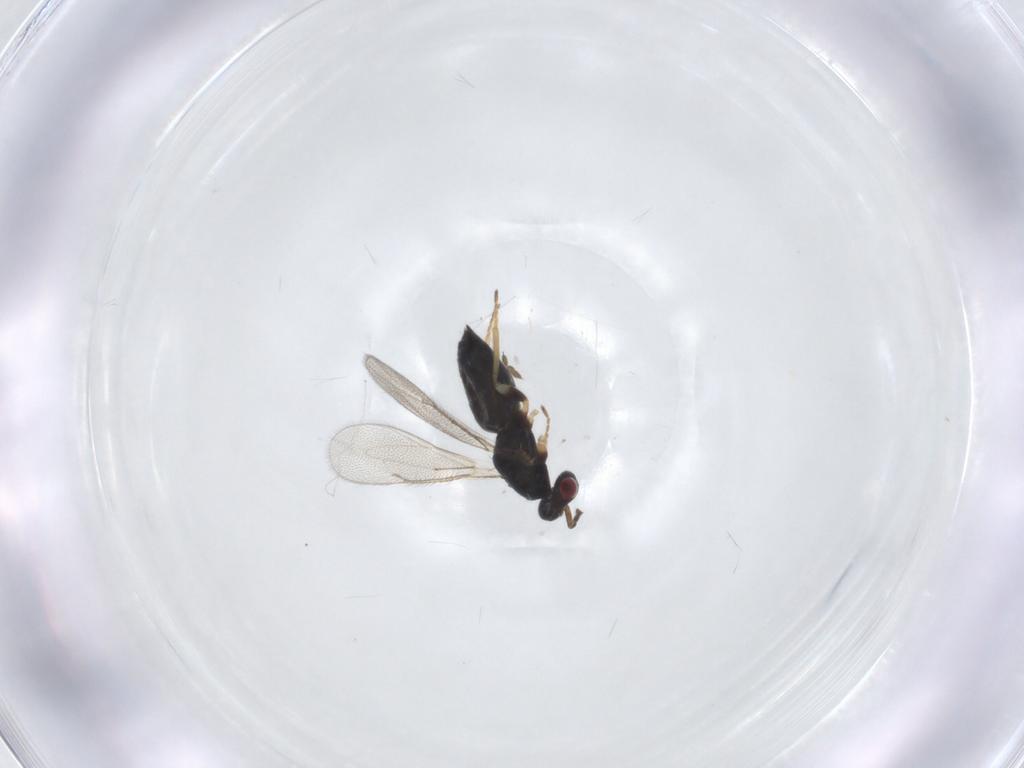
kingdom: Animalia
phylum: Arthropoda
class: Insecta
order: Hymenoptera
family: Eulophidae
